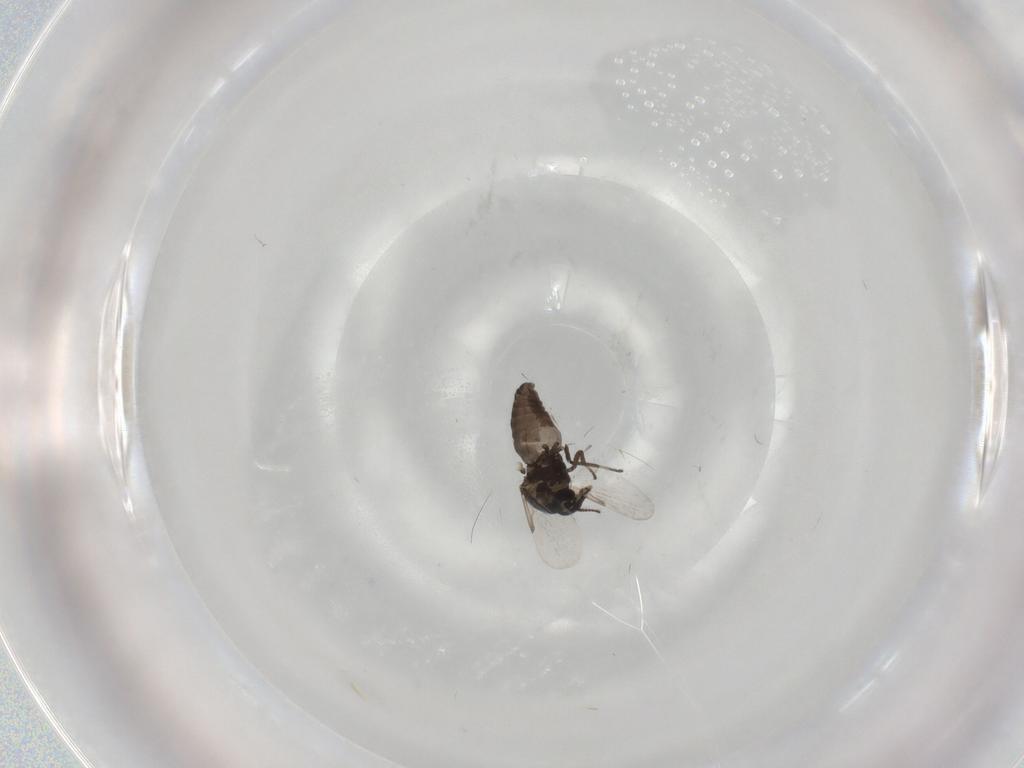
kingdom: Animalia
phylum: Arthropoda
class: Insecta
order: Diptera
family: Ceratopogonidae
